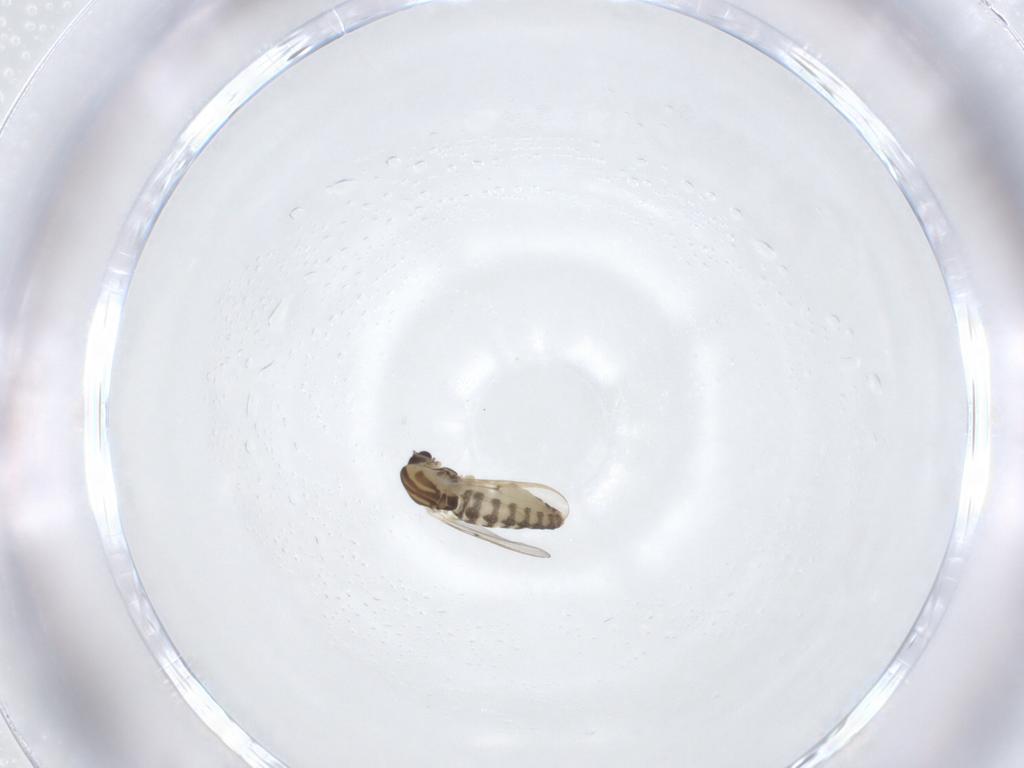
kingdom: Animalia
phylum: Arthropoda
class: Insecta
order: Diptera
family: Chironomidae
